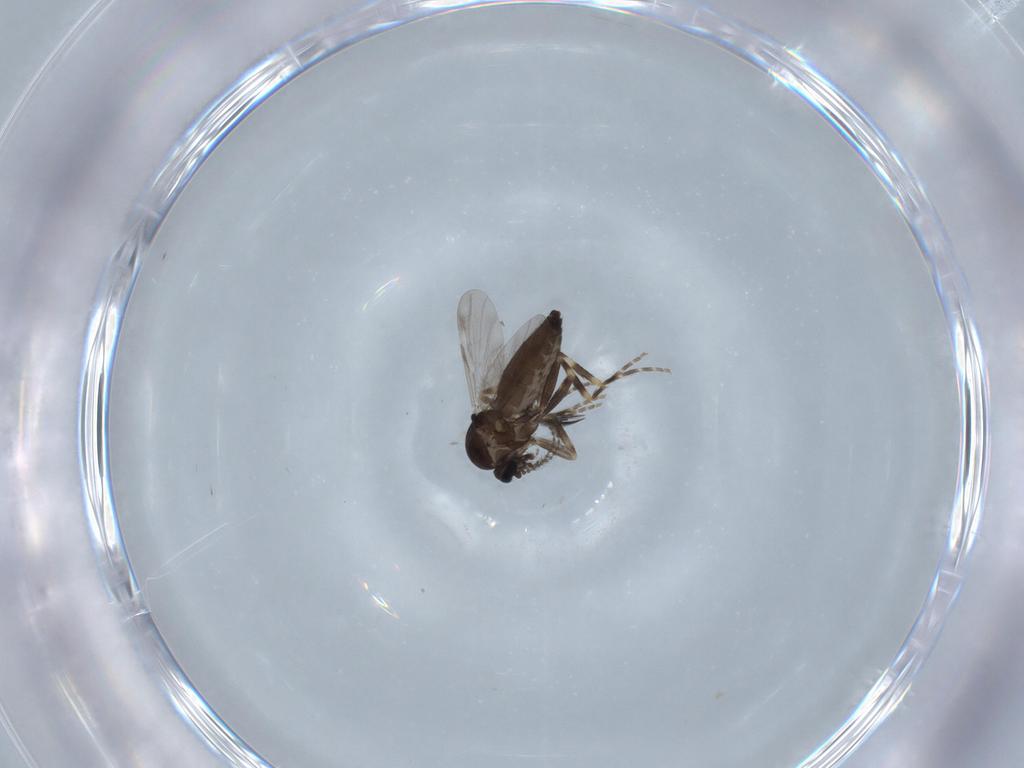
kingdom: Animalia
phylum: Arthropoda
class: Insecta
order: Diptera
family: Ceratopogonidae
